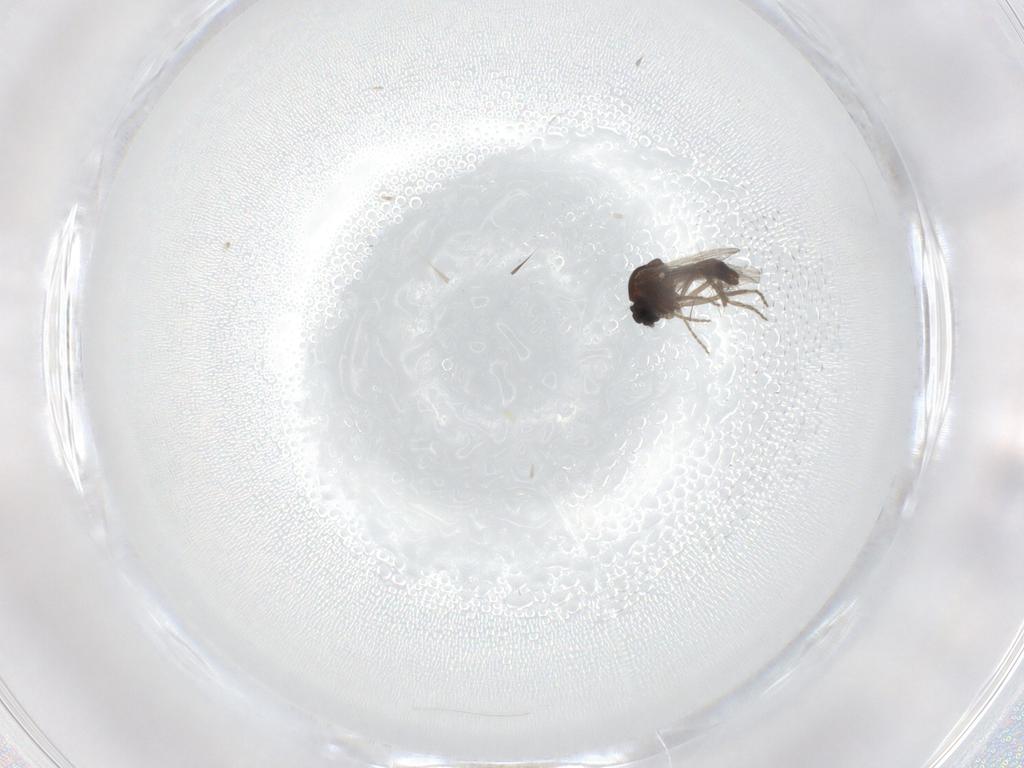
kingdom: Animalia
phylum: Arthropoda
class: Insecta
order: Diptera
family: Ceratopogonidae
